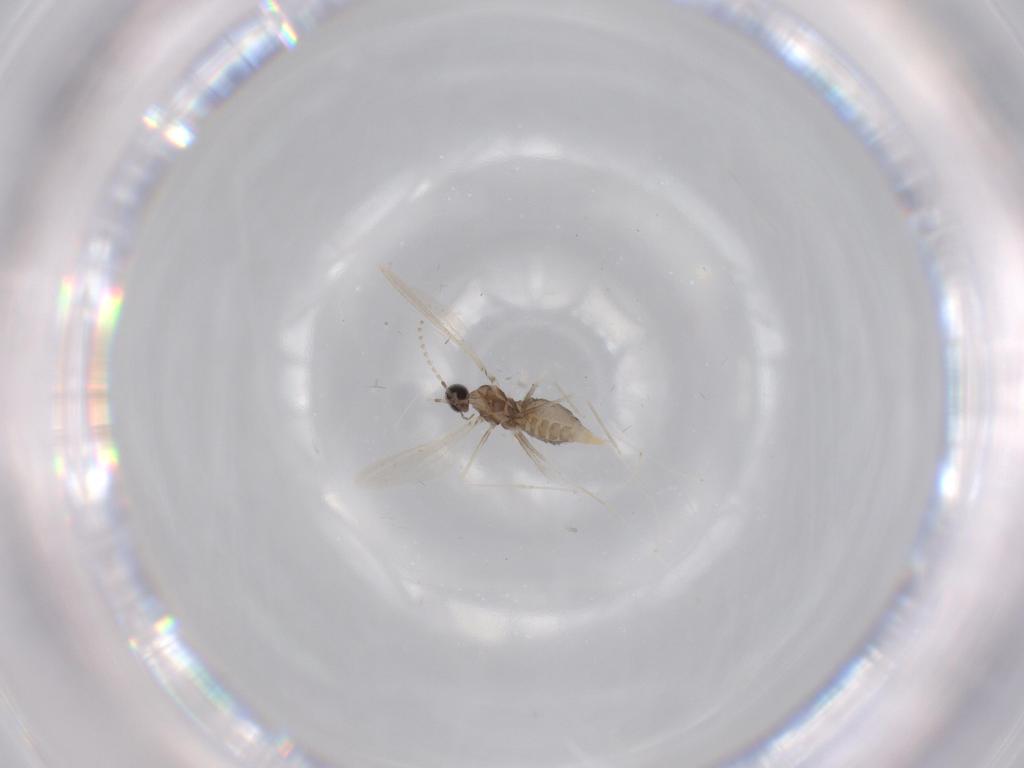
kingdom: Animalia
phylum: Arthropoda
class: Insecta
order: Diptera
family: Cecidomyiidae
